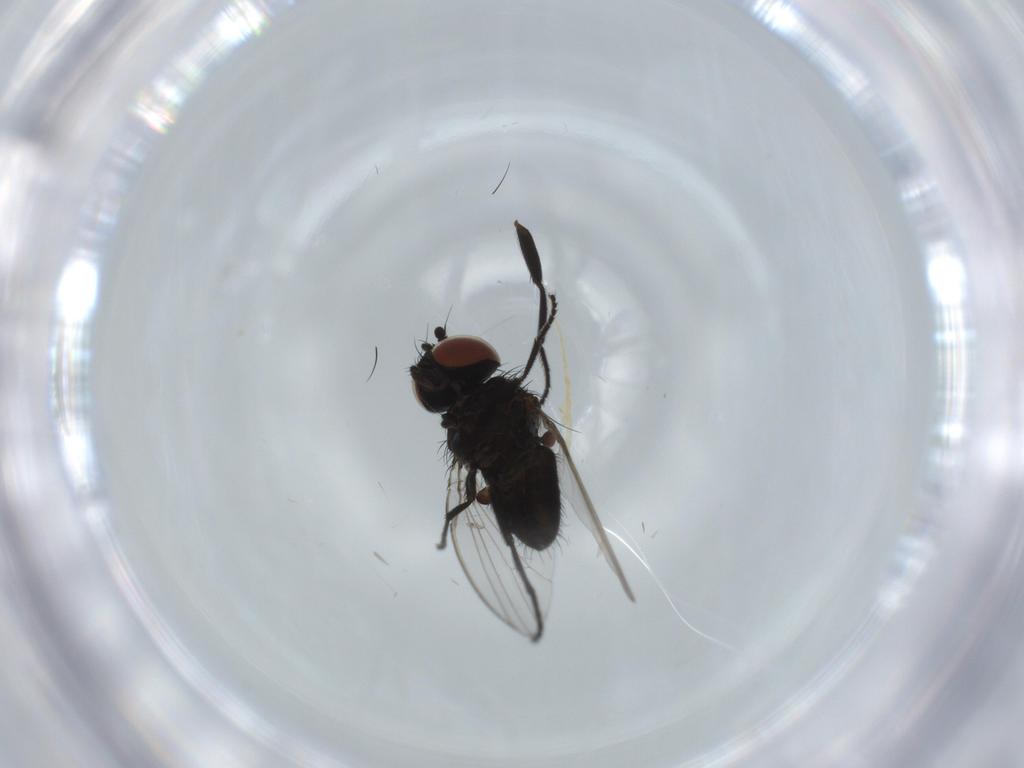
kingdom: Animalia
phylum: Arthropoda
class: Insecta
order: Diptera
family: Milichiidae
